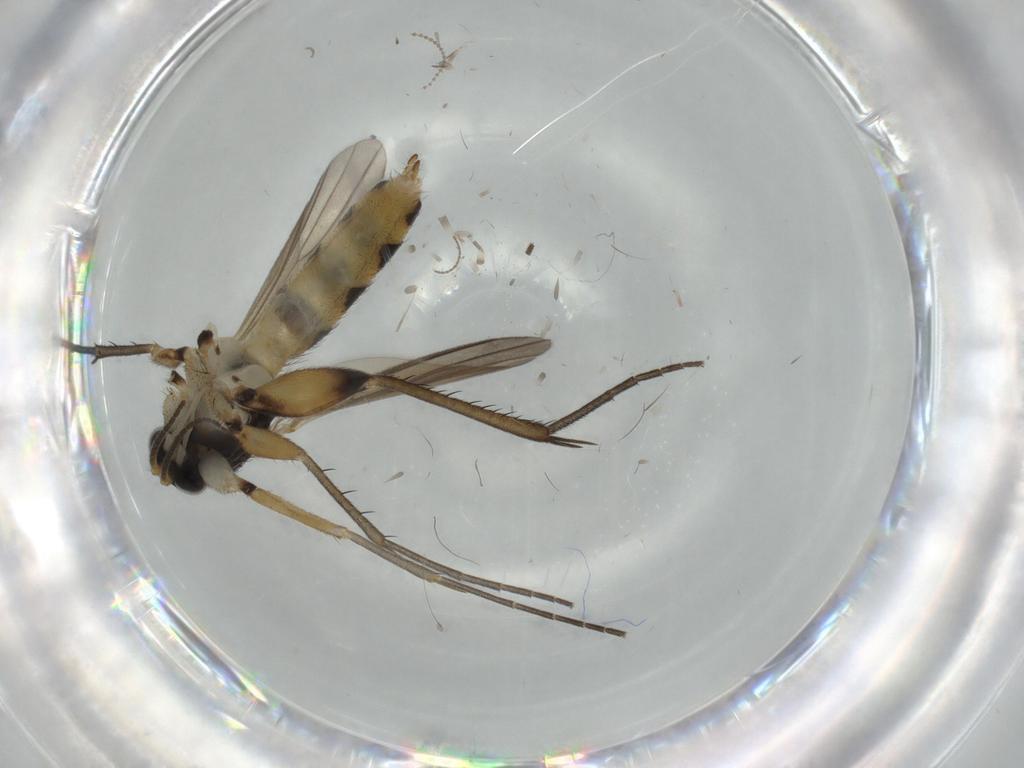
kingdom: Animalia
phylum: Arthropoda
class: Insecta
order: Diptera
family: Mycetophilidae
